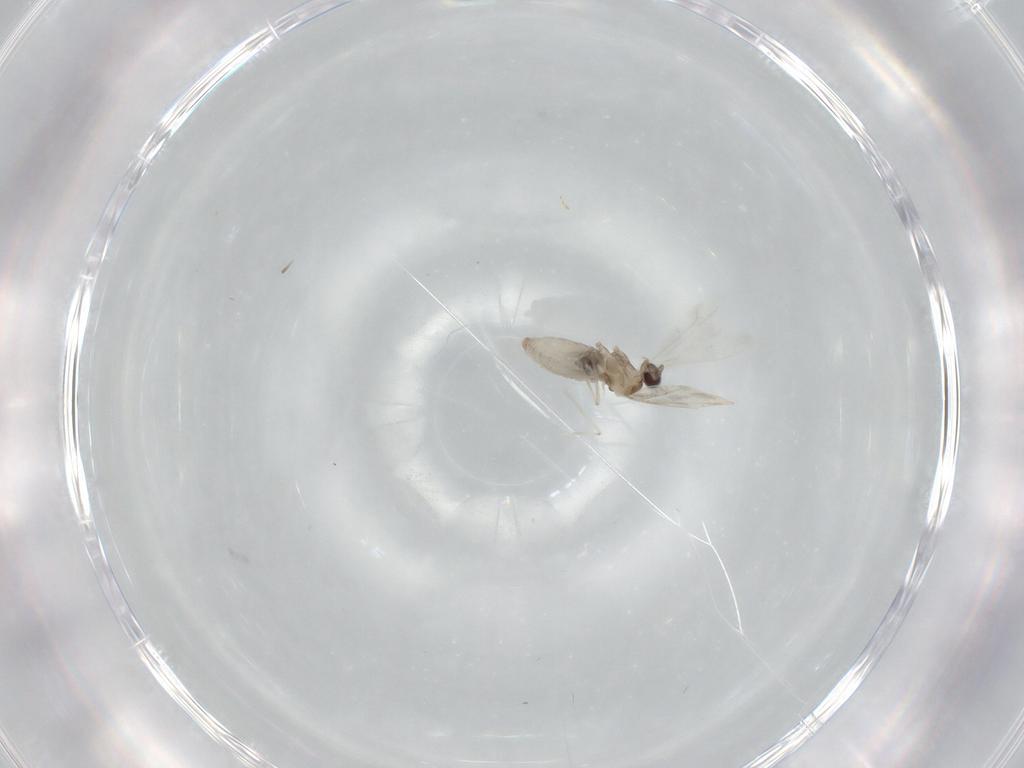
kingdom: Animalia
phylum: Arthropoda
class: Insecta
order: Diptera
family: Cecidomyiidae
